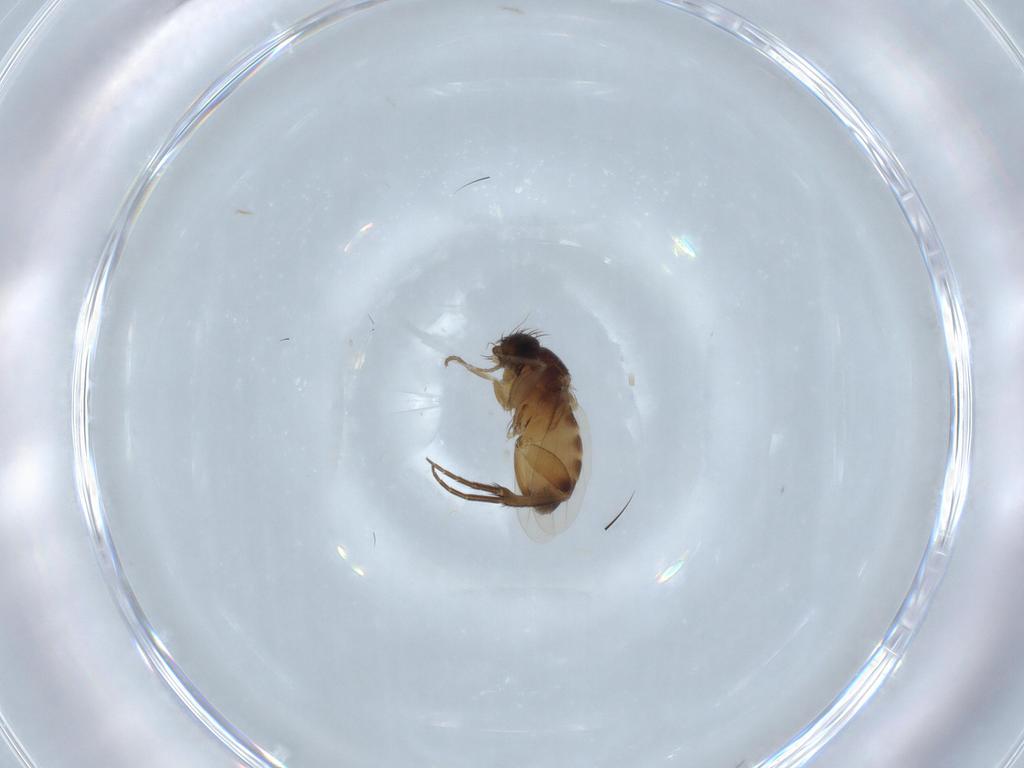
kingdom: Animalia
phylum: Arthropoda
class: Insecta
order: Diptera
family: Phoridae
